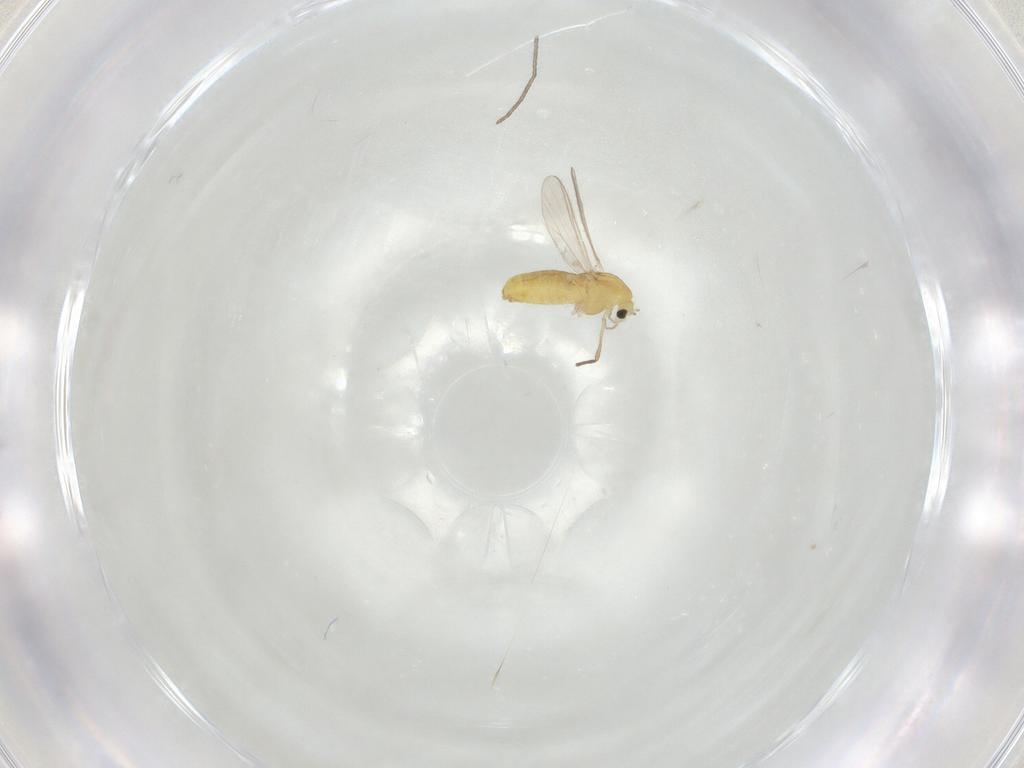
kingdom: Animalia
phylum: Arthropoda
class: Insecta
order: Diptera
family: Chironomidae
